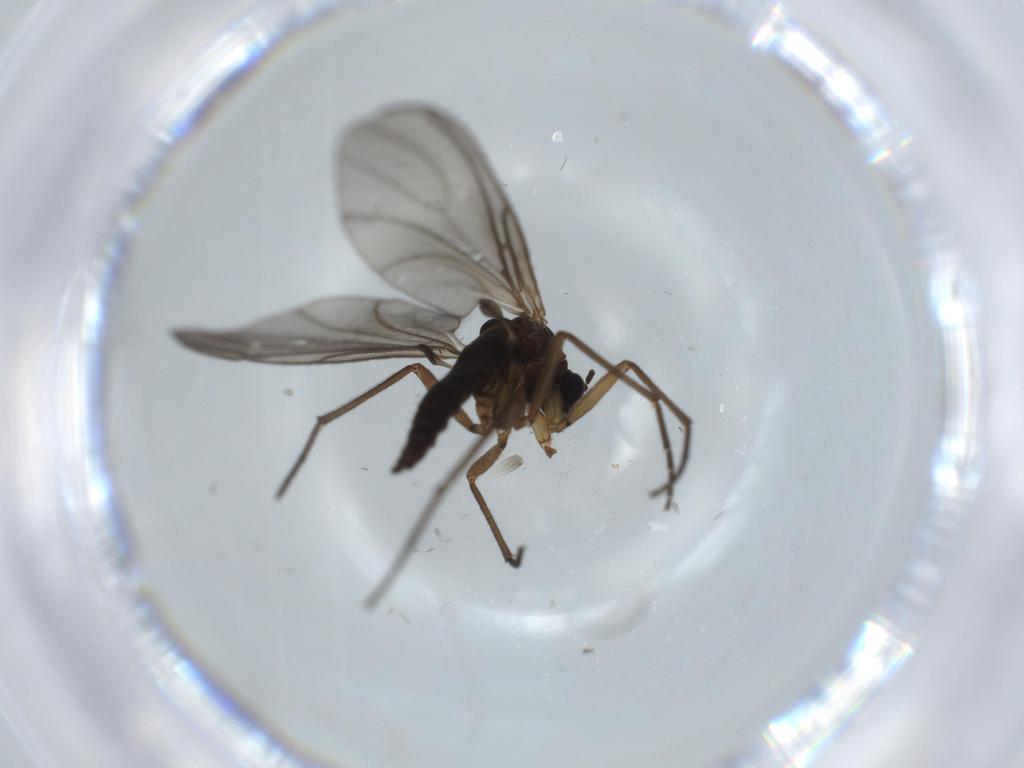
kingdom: Animalia
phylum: Arthropoda
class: Insecta
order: Diptera
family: Sciaridae
